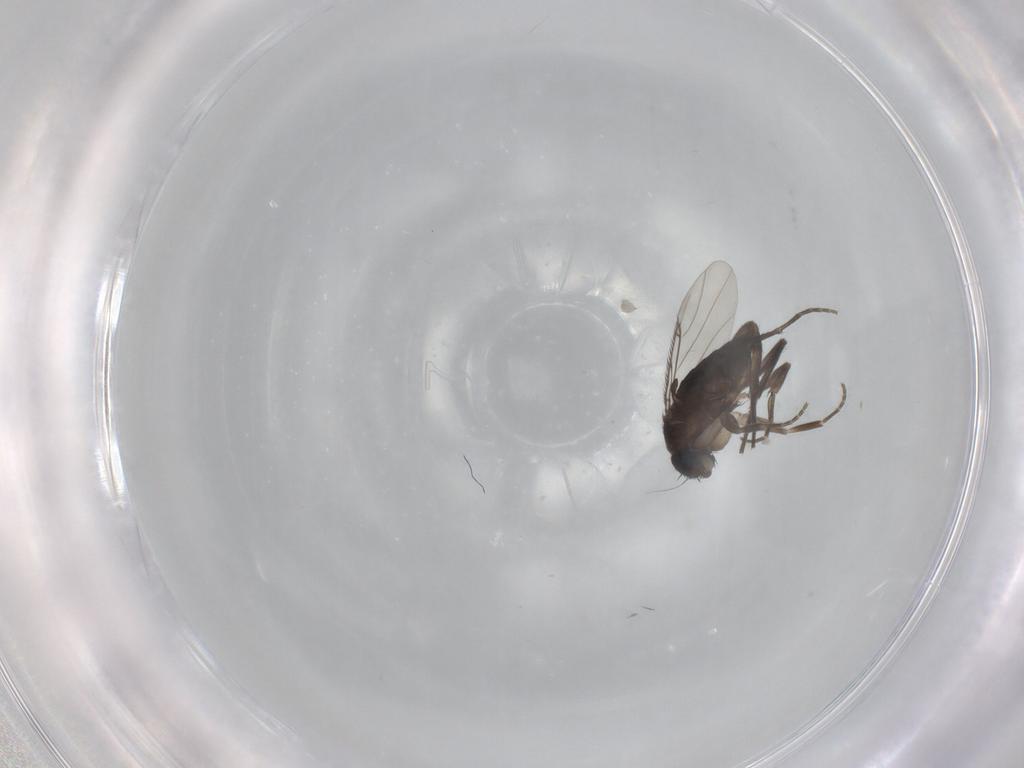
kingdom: Animalia
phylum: Arthropoda
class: Insecta
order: Diptera
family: Phoridae
